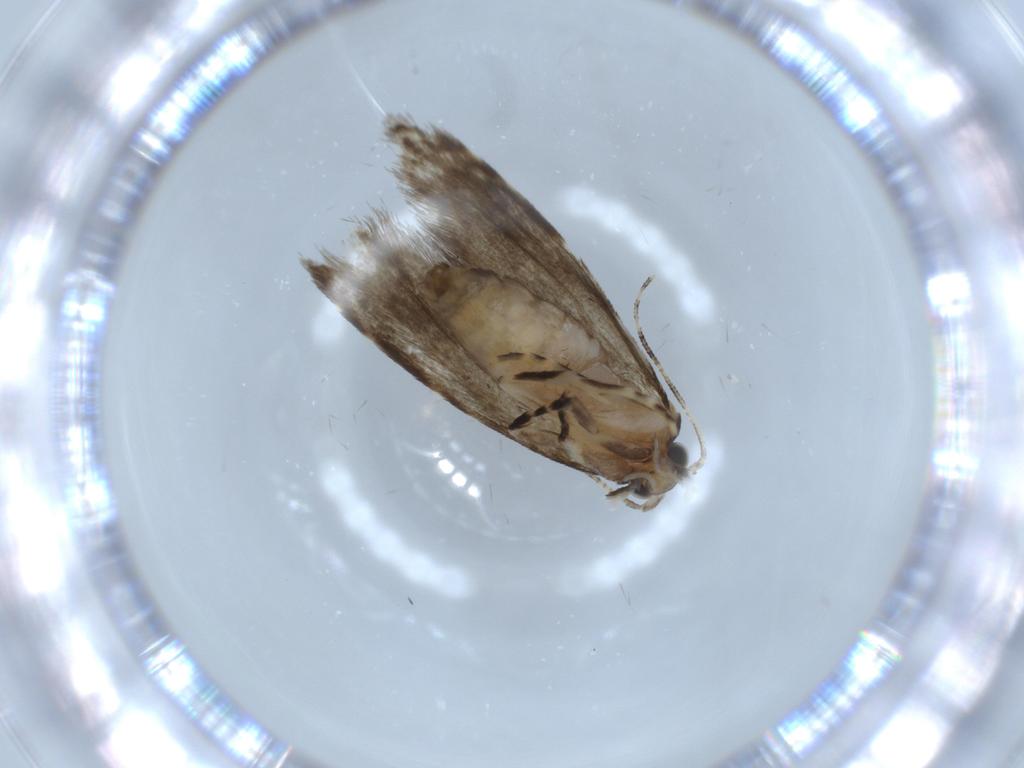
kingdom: Animalia
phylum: Arthropoda
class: Insecta
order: Lepidoptera
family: Tineidae
